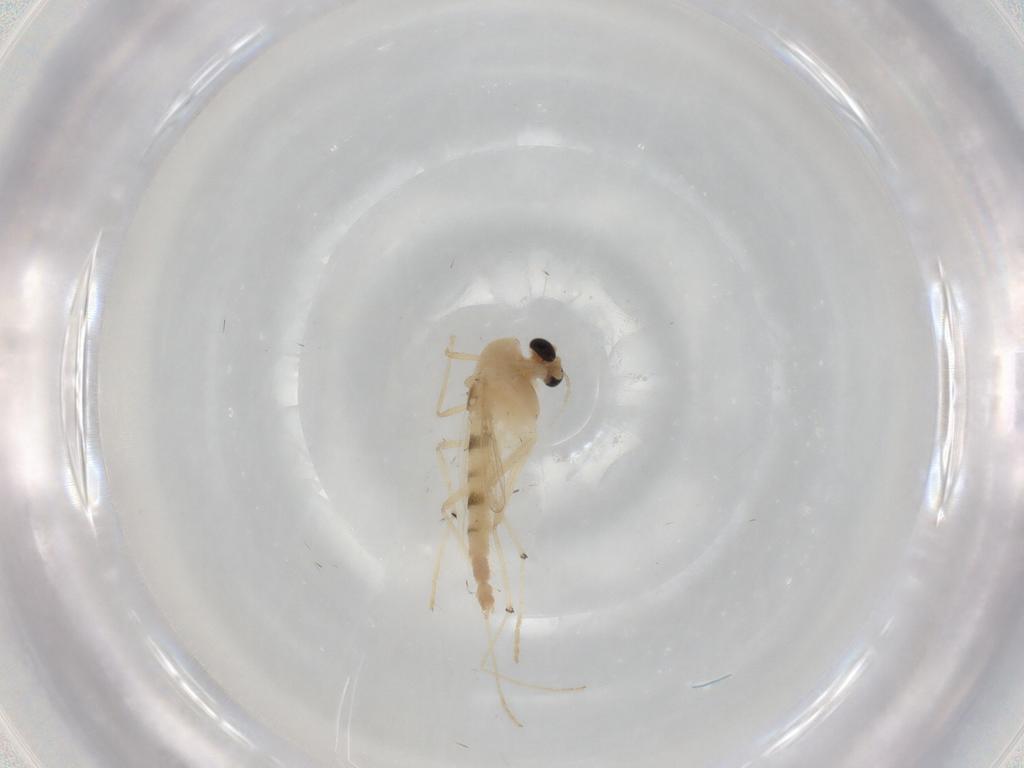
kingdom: Animalia
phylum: Arthropoda
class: Insecta
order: Diptera
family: Chironomidae
